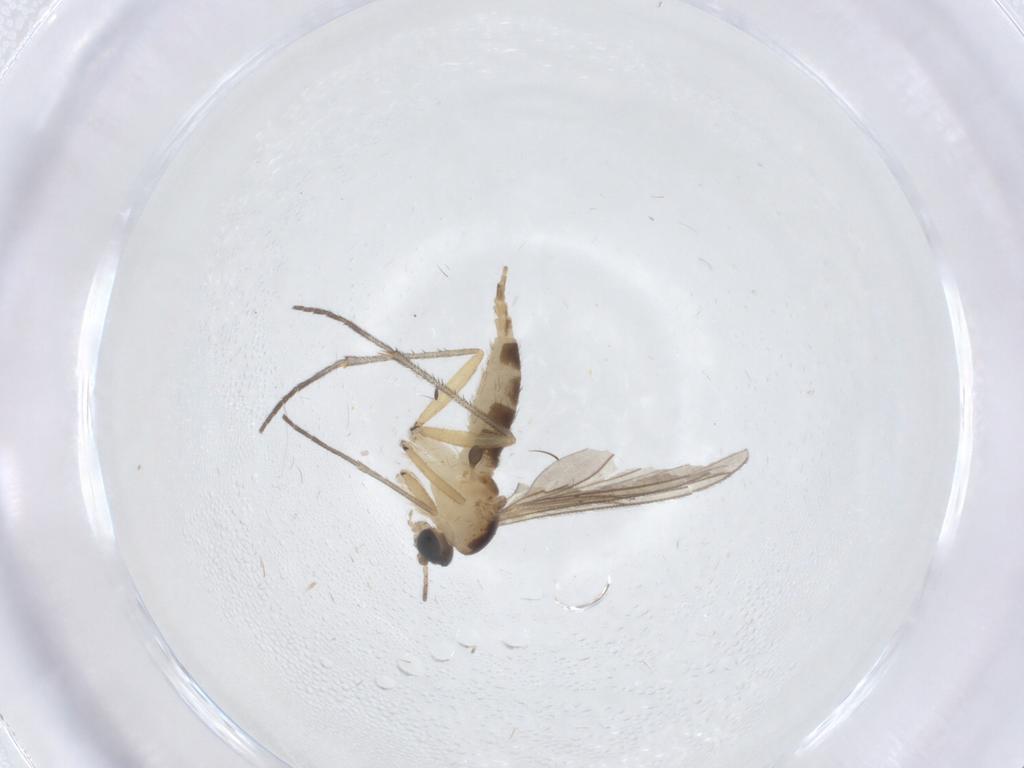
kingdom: Animalia
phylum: Arthropoda
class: Insecta
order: Diptera
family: Sciaridae
